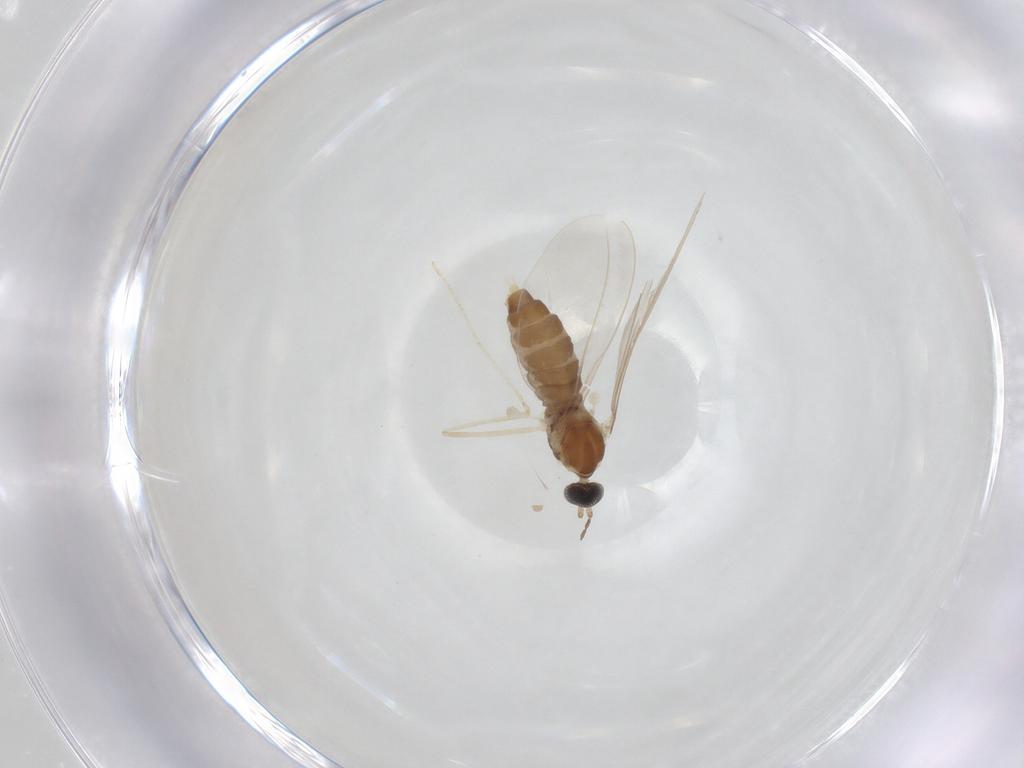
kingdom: Animalia
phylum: Arthropoda
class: Insecta
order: Diptera
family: Cecidomyiidae
